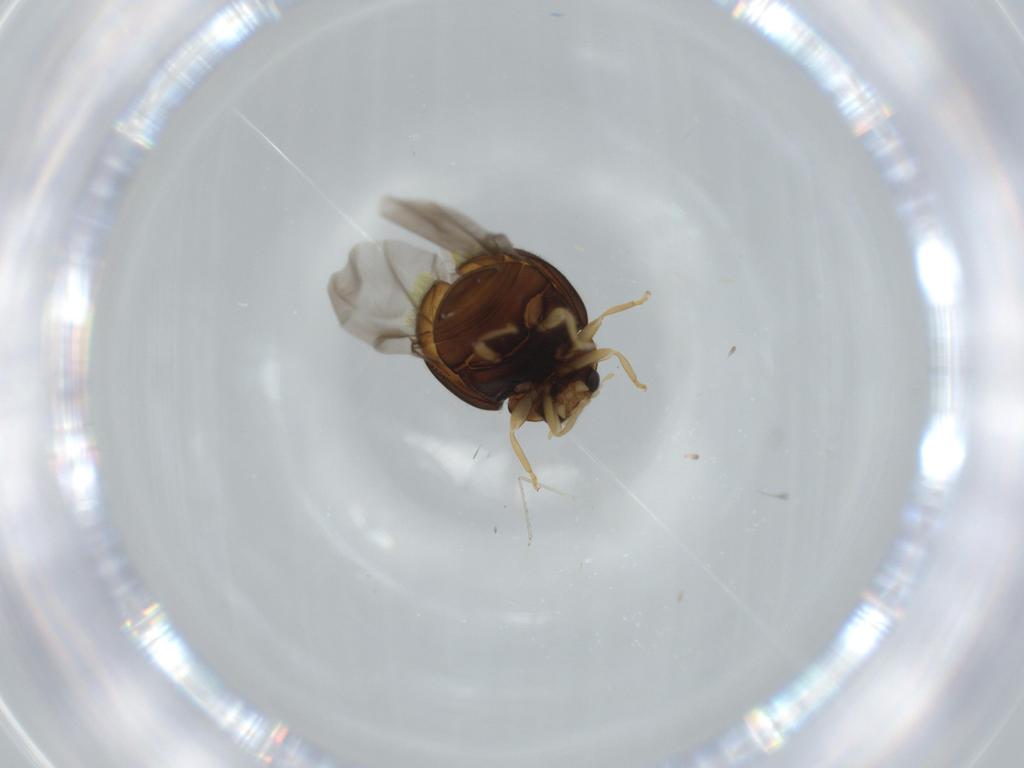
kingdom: Animalia
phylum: Arthropoda
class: Insecta
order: Coleoptera
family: Coccinellidae
